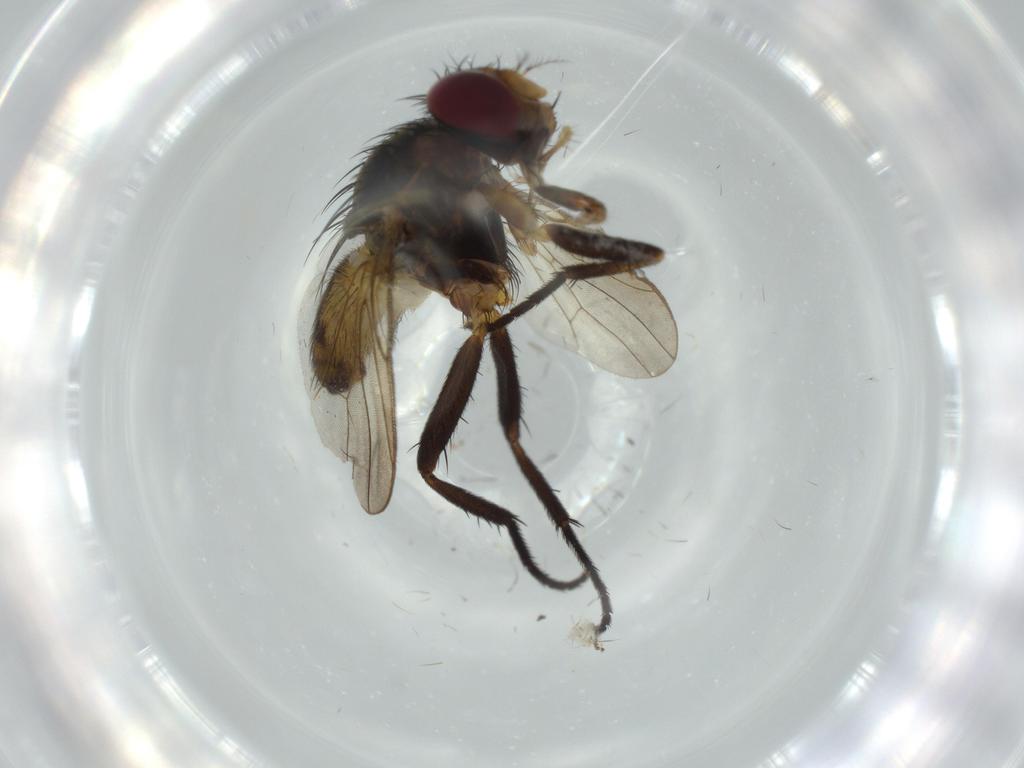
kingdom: Animalia
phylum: Arthropoda
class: Insecta
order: Diptera
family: Anthomyiidae
